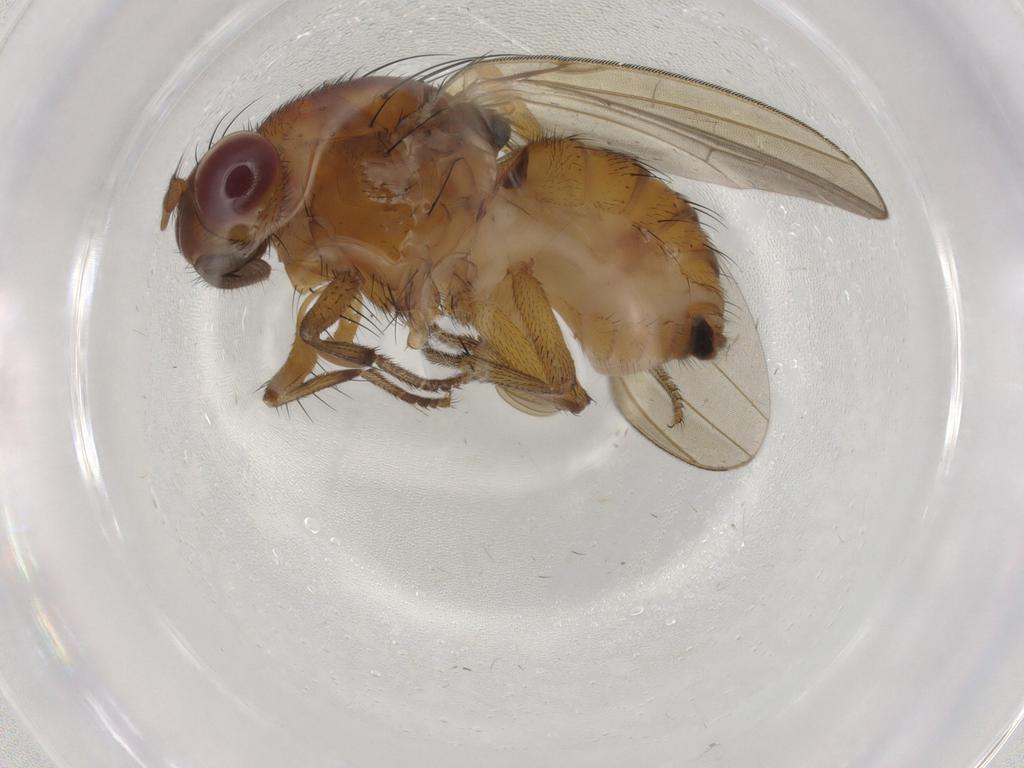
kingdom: Animalia
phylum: Arthropoda
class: Insecta
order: Diptera
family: Lauxaniidae
